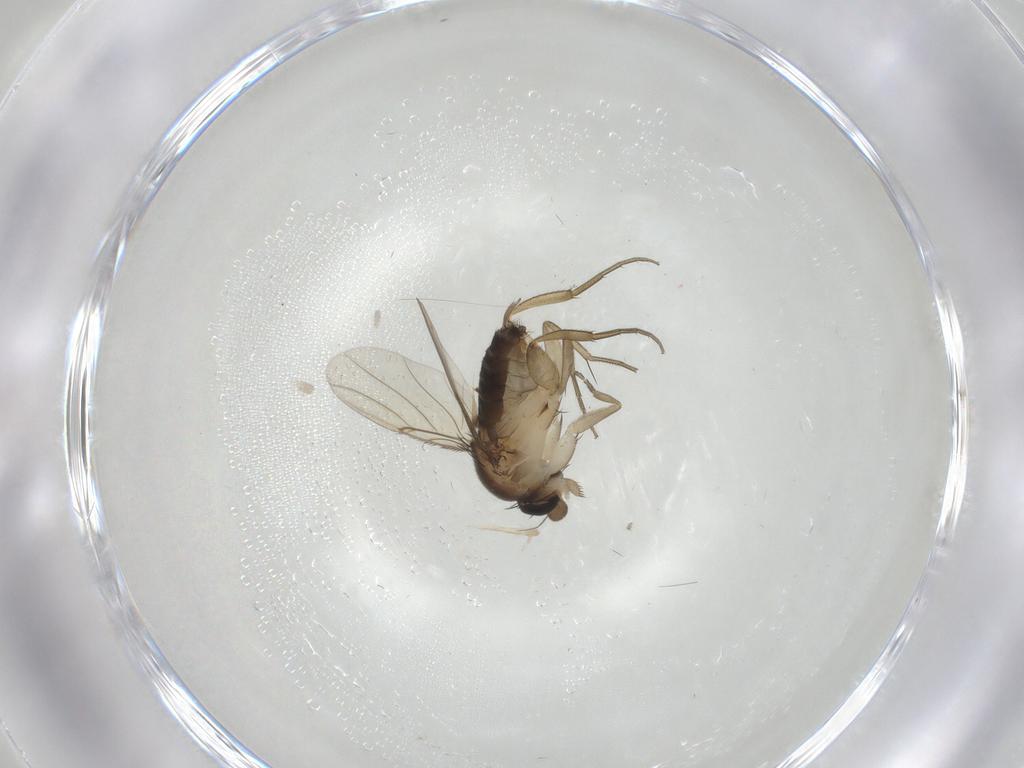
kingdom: Animalia
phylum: Arthropoda
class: Insecta
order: Diptera
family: Phoridae
